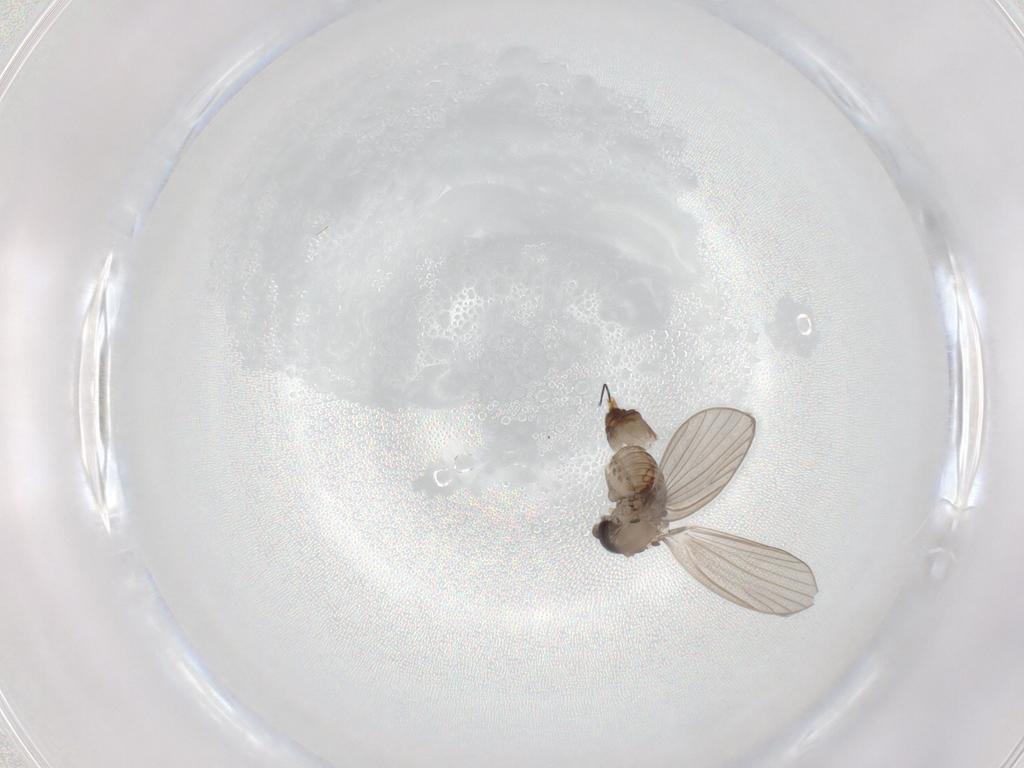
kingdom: Animalia
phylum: Arthropoda
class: Insecta
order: Diptera
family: Psychodidae
